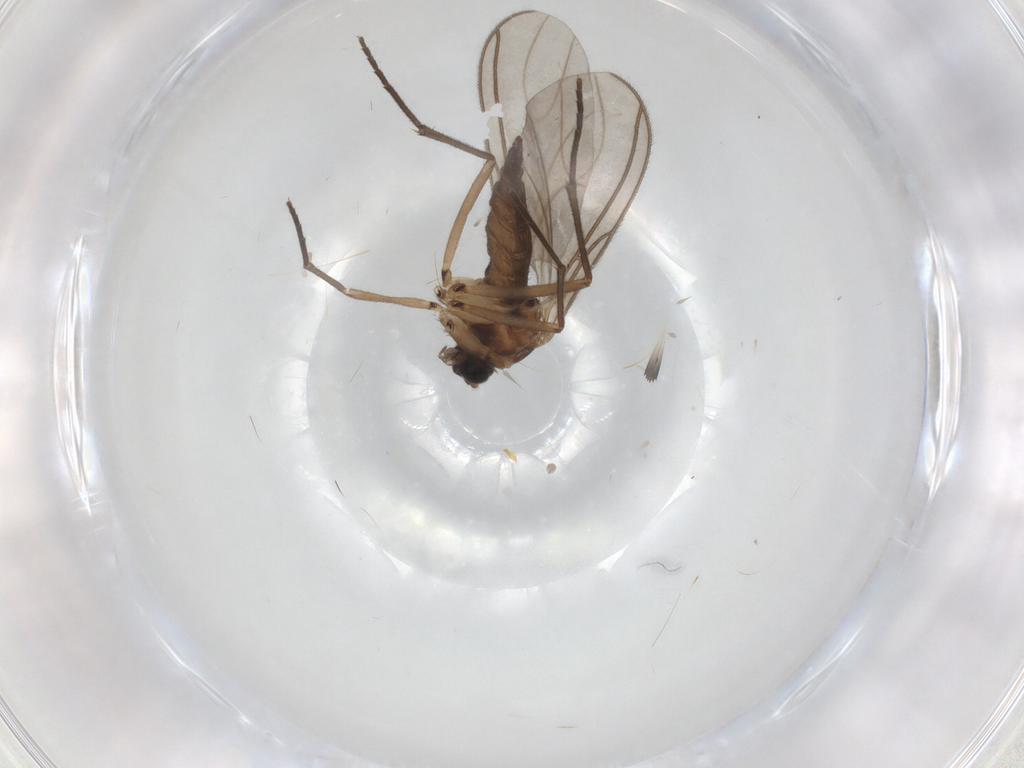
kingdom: Animalia
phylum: Arthropoda
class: Insecta
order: Diptera
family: Sciaridae
